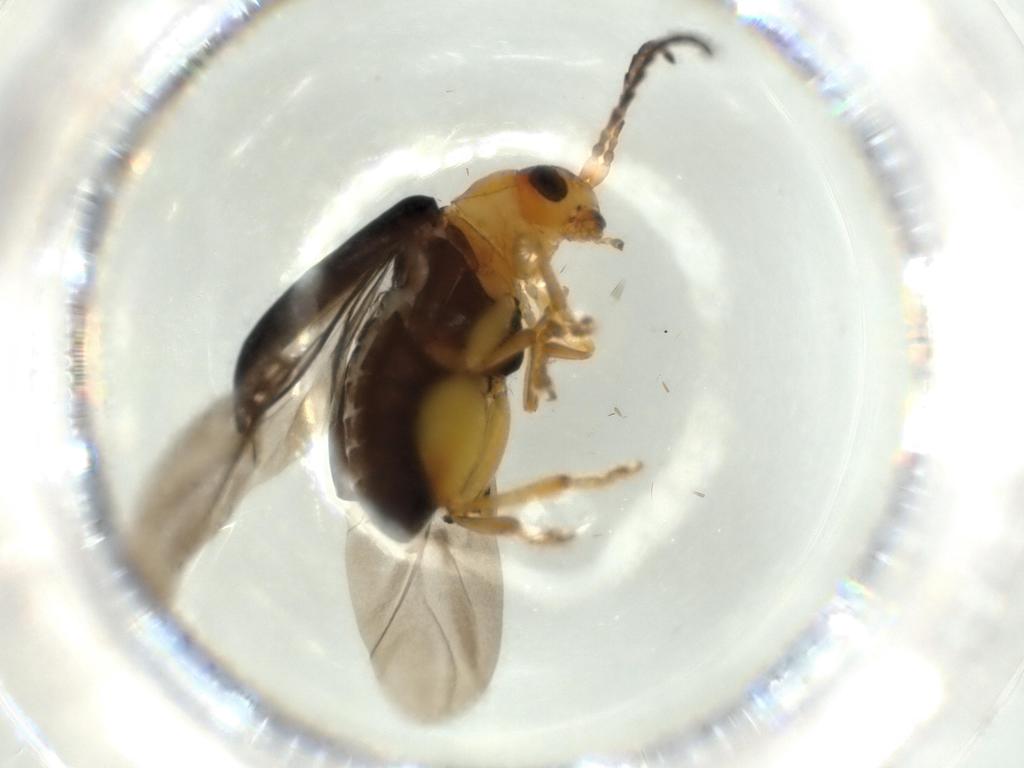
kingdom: Animalia
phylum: Arthropoda
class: Insecta
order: Coleoptera
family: Chrysomelidae
